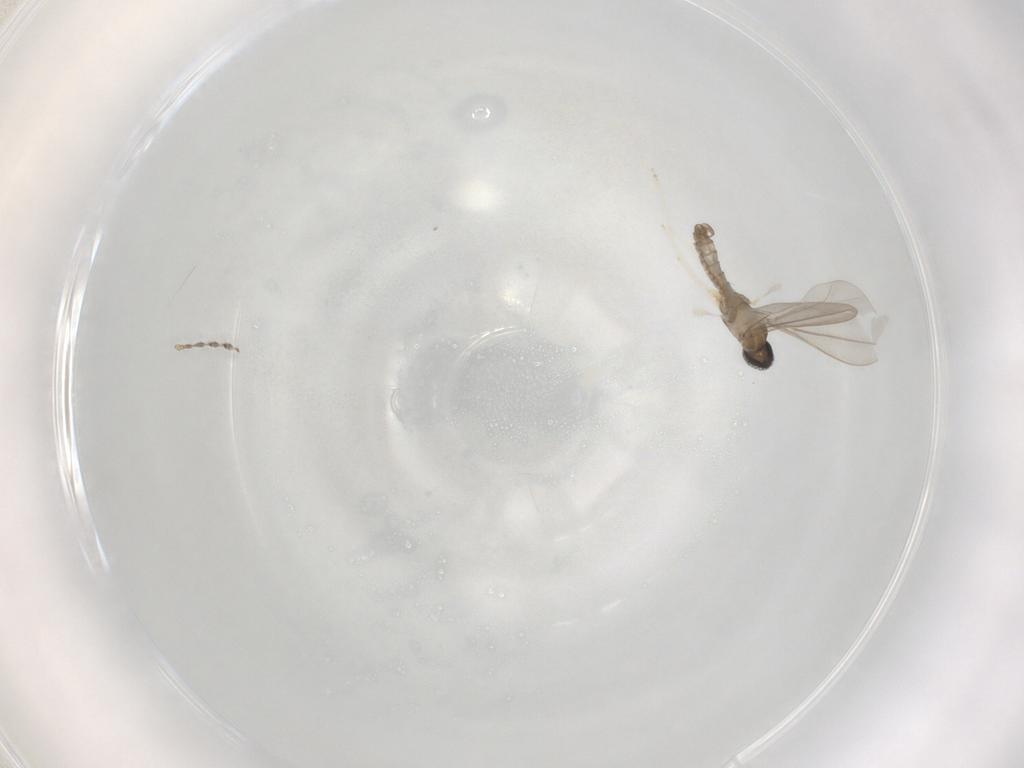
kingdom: Animalia
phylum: Arthropoda
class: Insecta
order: Diptera
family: Cecidomyiidae
